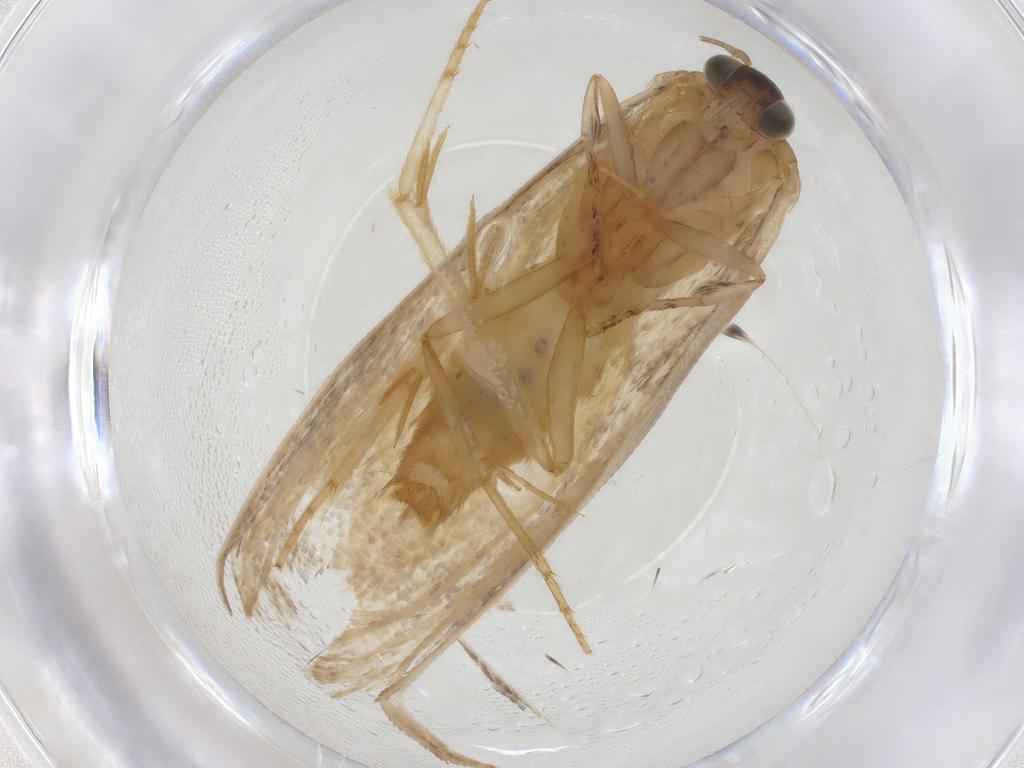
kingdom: Animalia
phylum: Arthropoda
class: Insecta
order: Lepidoptera
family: Tortricidae
